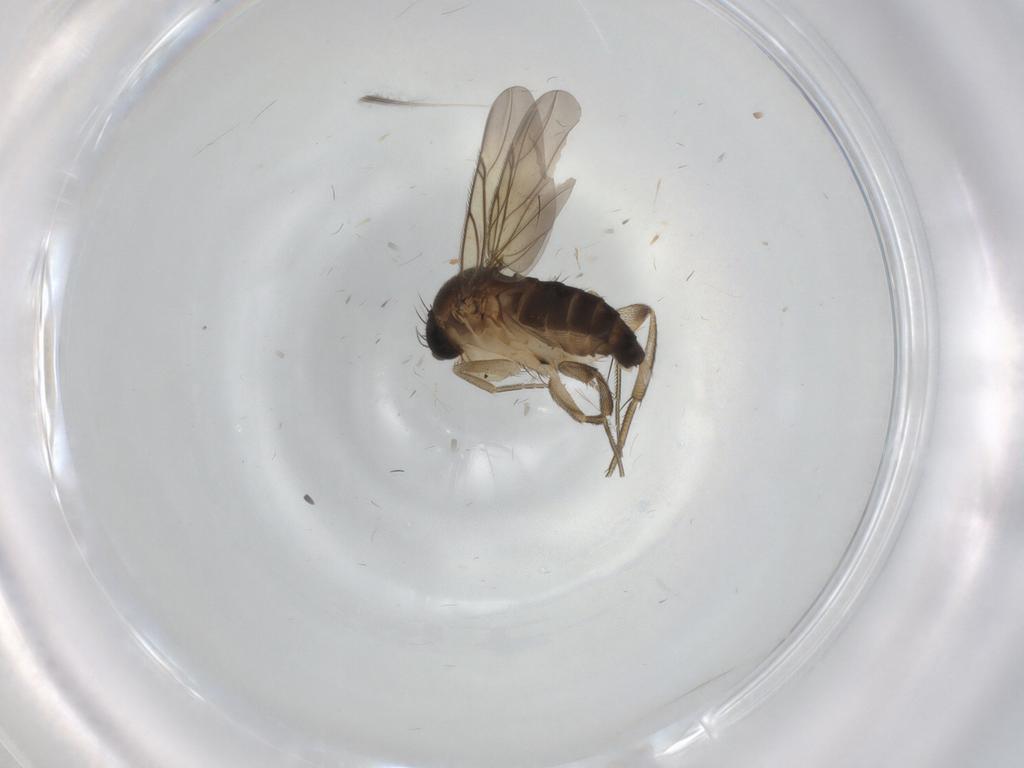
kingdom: Animalia
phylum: Arthropoda
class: Insecta
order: Diptera
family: Phoridae
